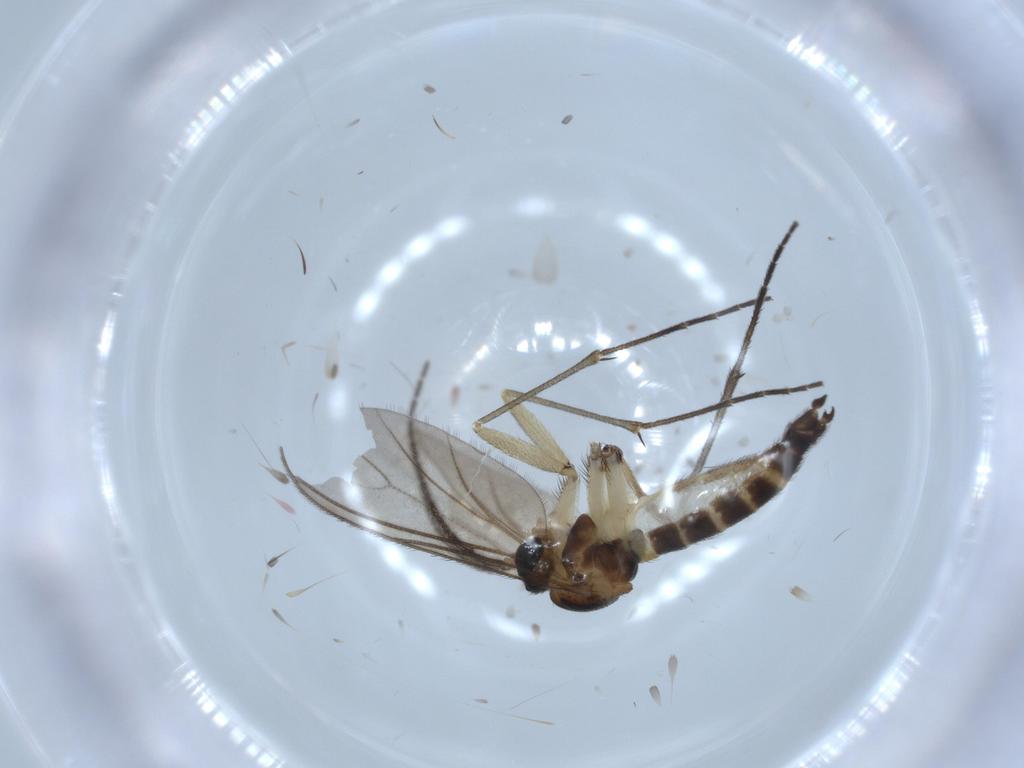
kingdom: Animalia
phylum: Arthropoda
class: Insecta
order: Diptera
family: Sciaridae
